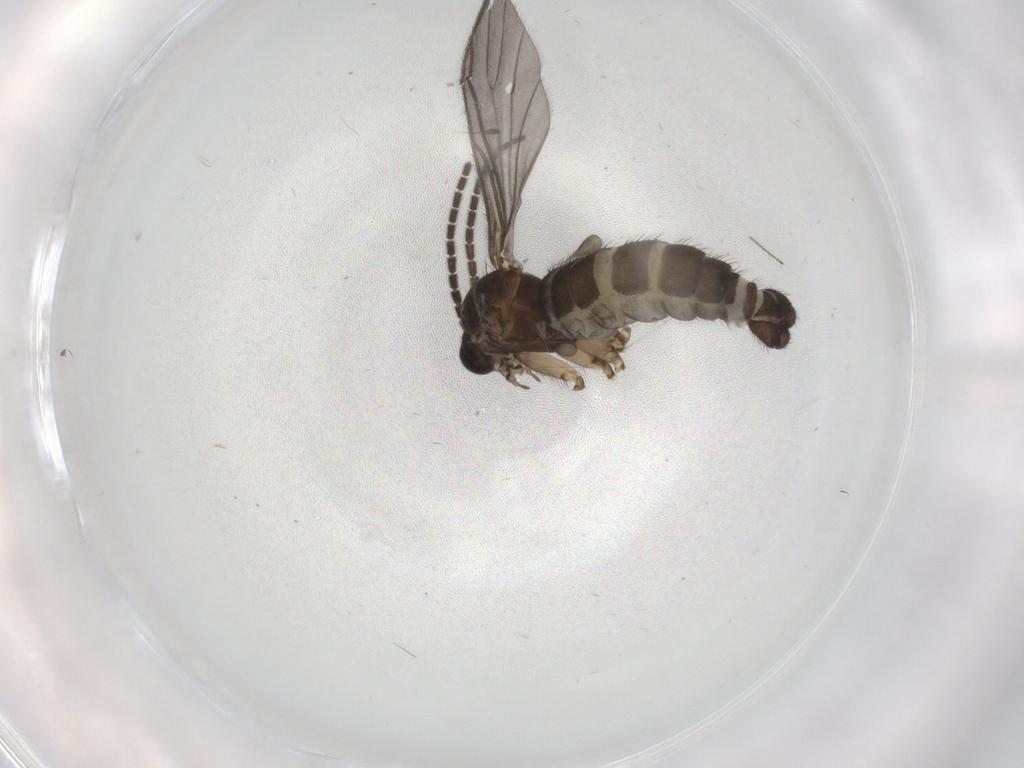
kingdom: Animalia
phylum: Arthropoda
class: Insecta
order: Diptera
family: Sciaridae
